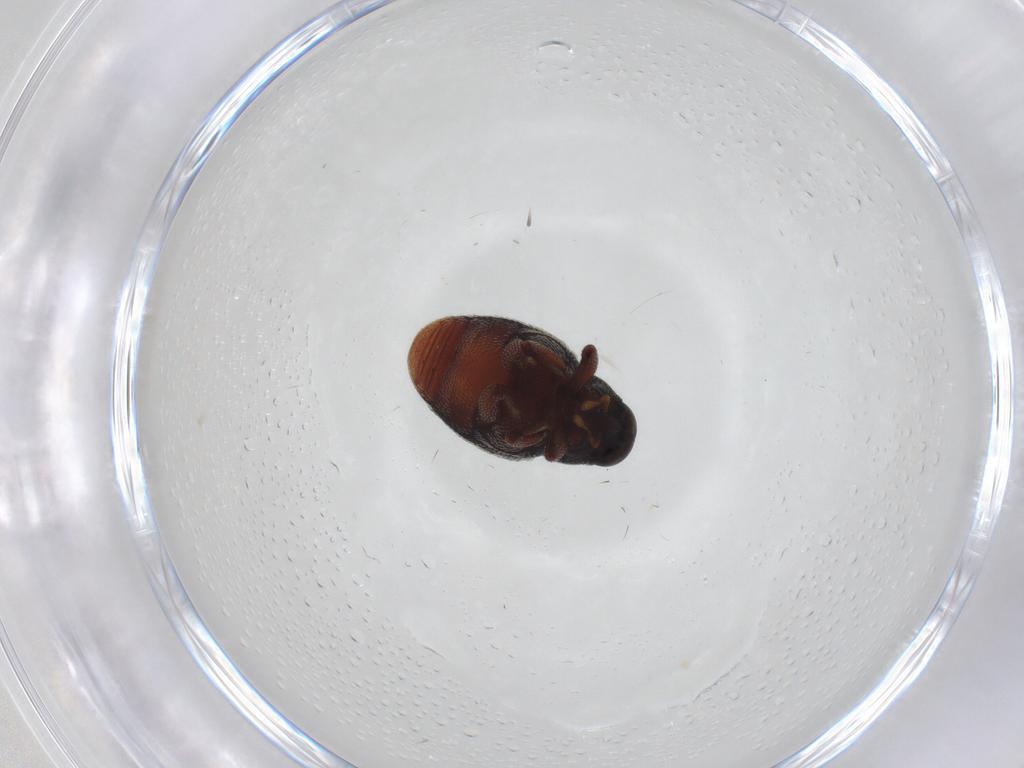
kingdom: Animalia
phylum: Arthropoda
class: Insecta
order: Coleoptera
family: Curculionidae
